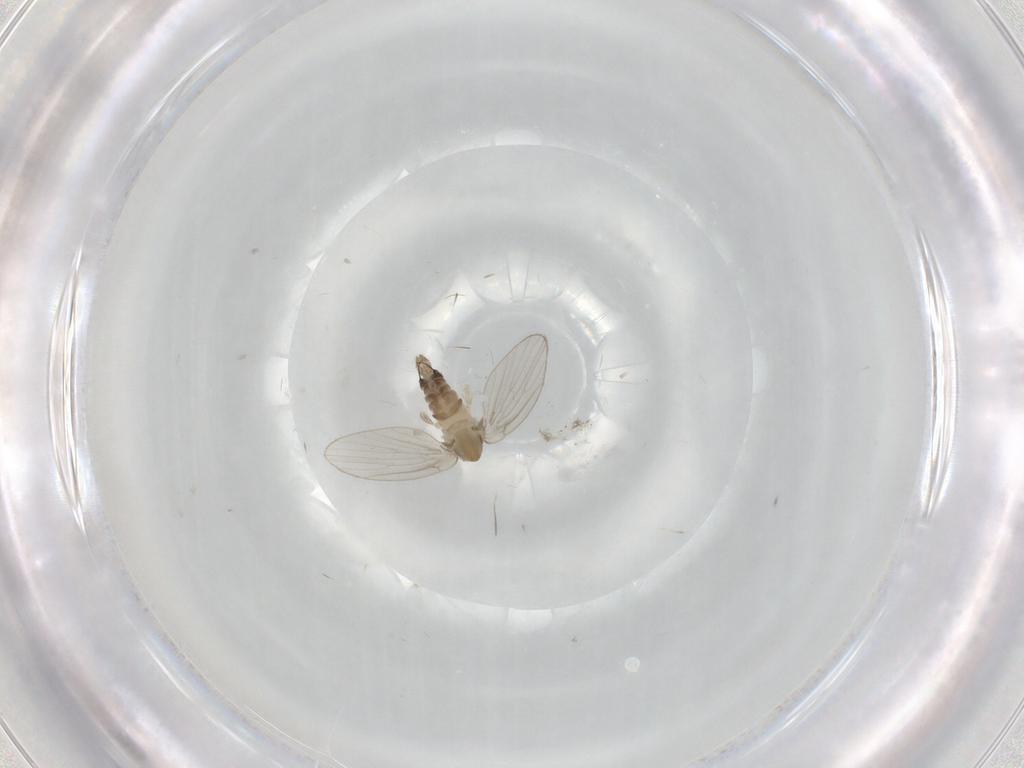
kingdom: Animalia
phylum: Arthropoda
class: Insecta
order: Diptera
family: Psychodidae
